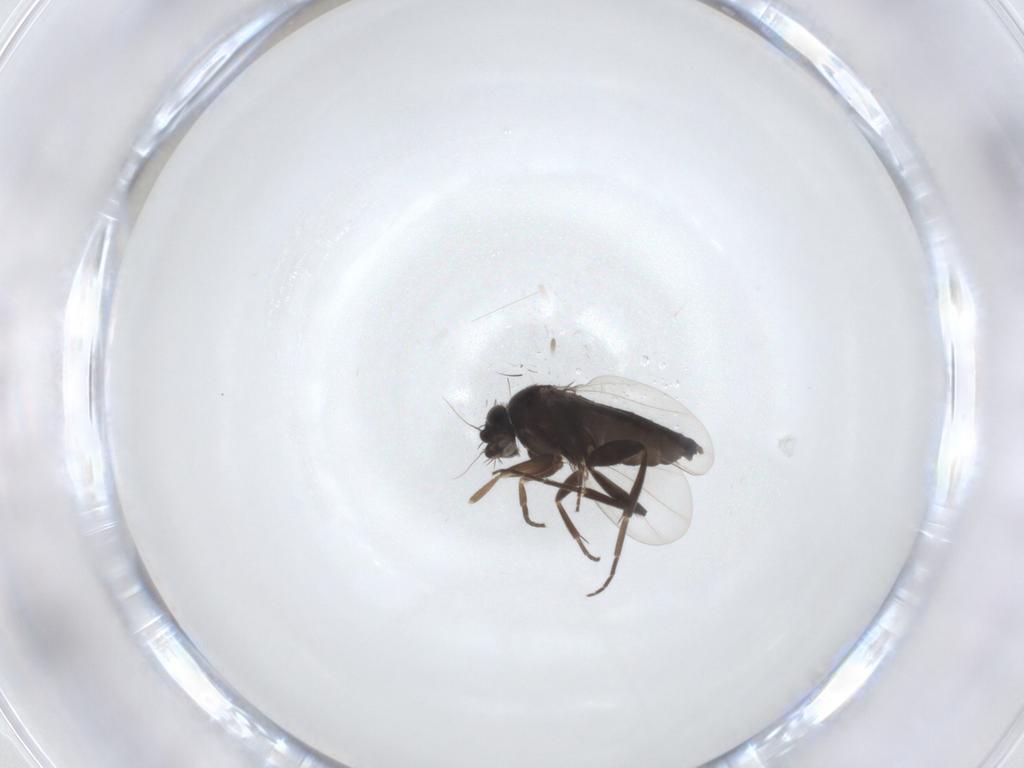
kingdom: Animalia
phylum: Arthropoda
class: Insecta
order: Diptera
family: Phoridae
